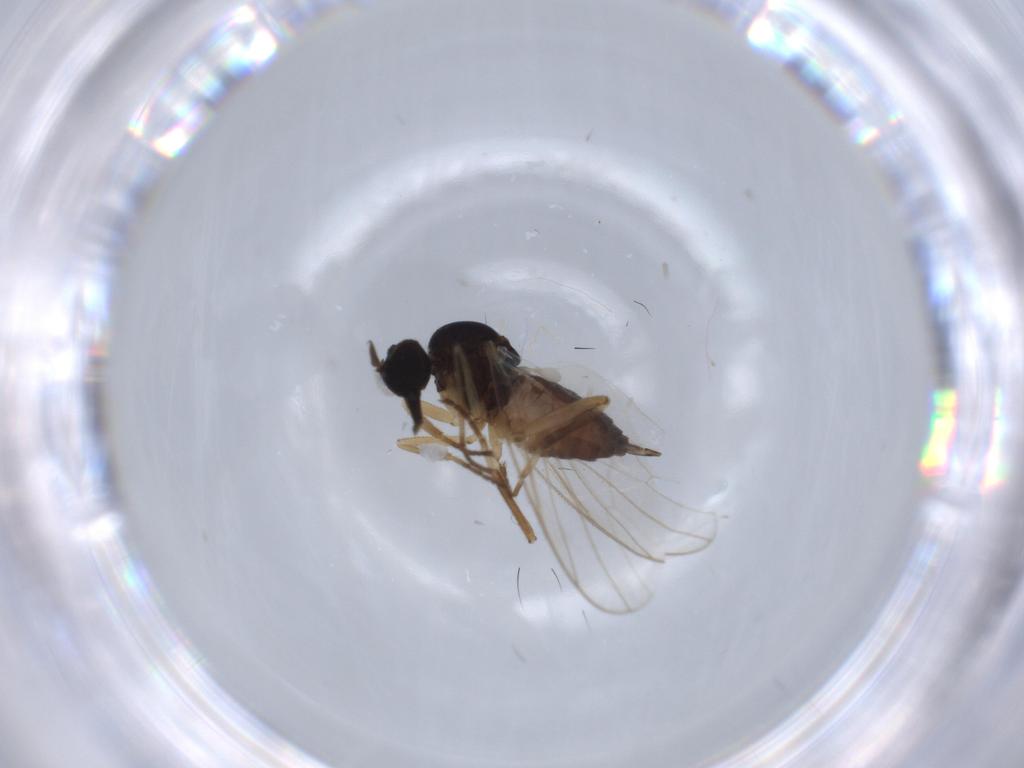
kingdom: Animalia
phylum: Arthropoda
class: Insecta
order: Diptera
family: Hybotidae
